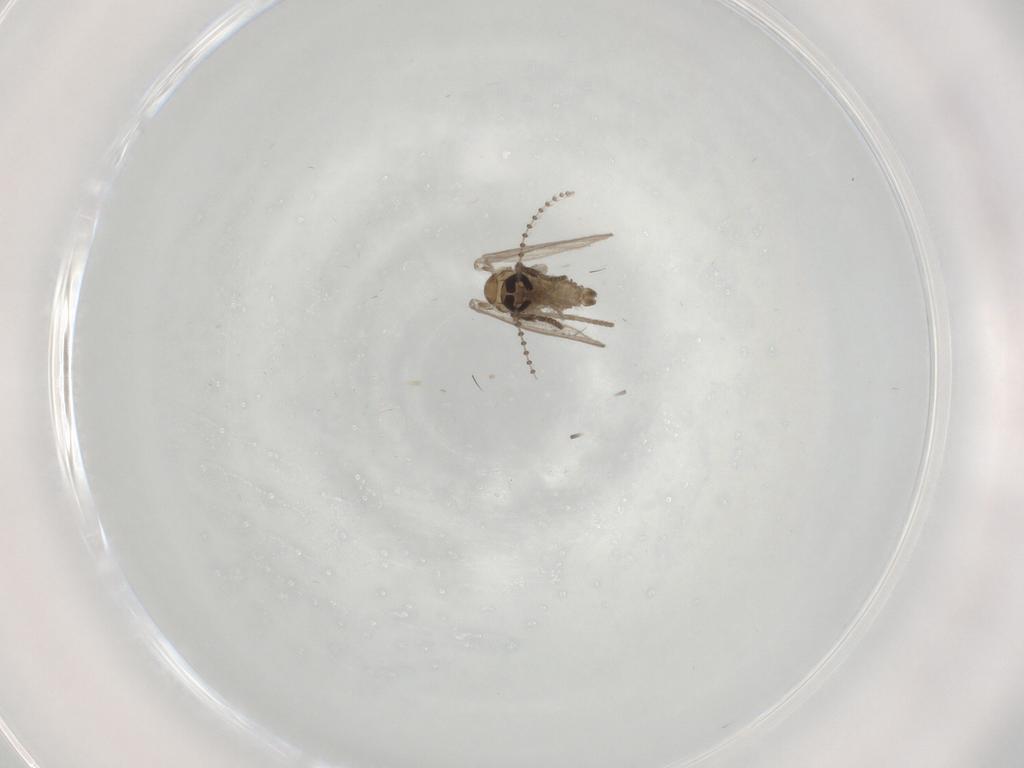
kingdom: Animalia
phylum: Arthropoda
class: Insecta
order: Diptera
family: Psychodidae
